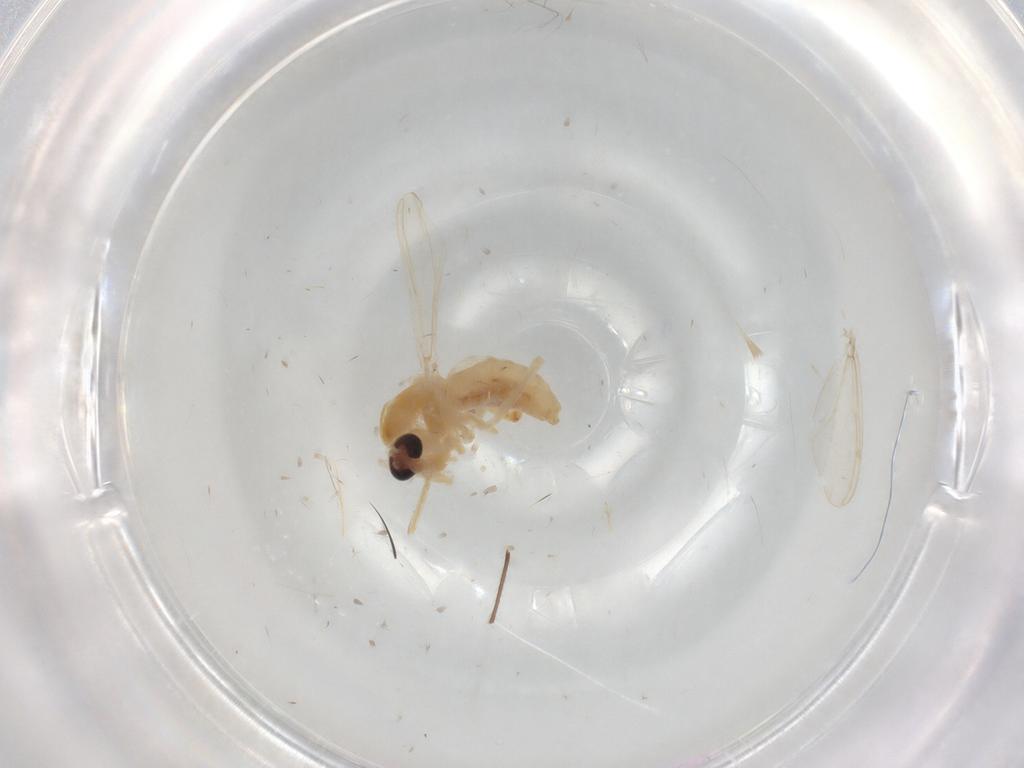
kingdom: Animalia
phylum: Arthropoda
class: Insecta
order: Diptera
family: Chironomidae
